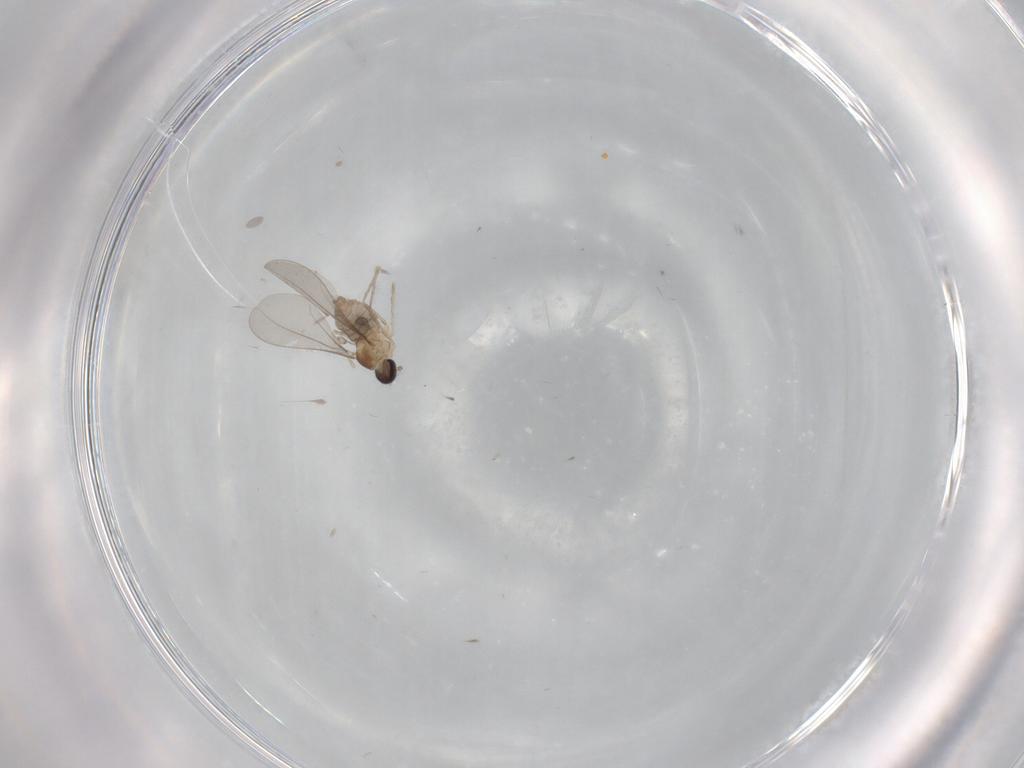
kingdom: Animalia
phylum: Arthropoda
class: Insecta
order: Diptera
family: Cecidomyiidae
